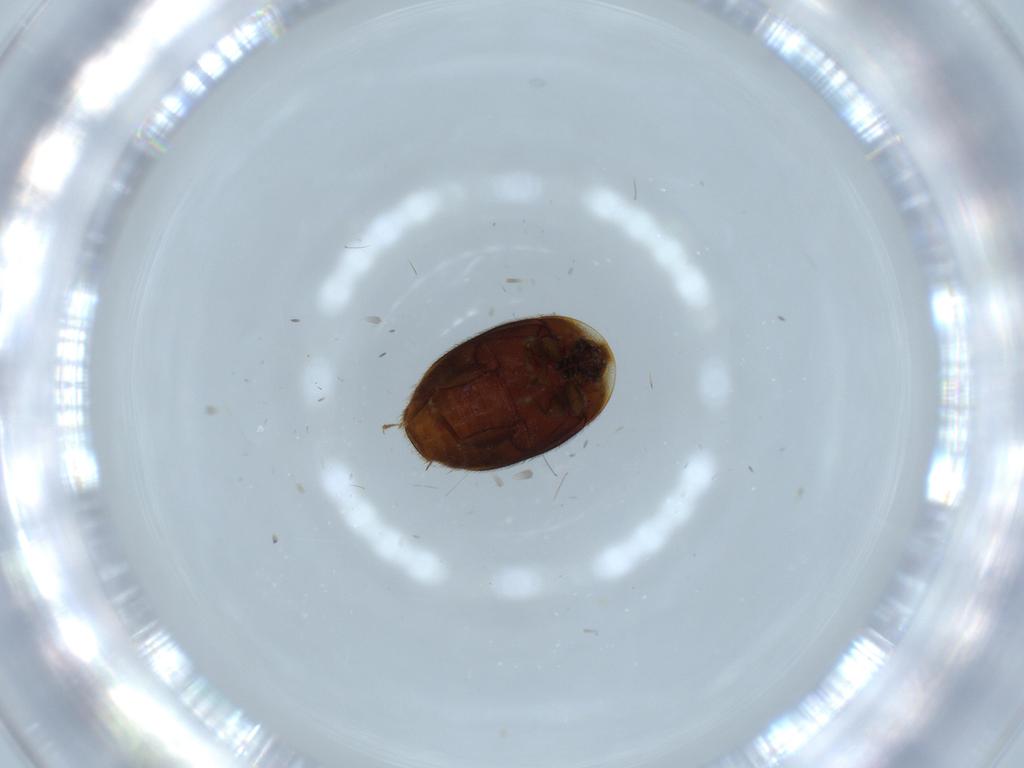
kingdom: Animalia
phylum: Arthropoda
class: Insecta
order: Coleoptera
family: Corylophidae
